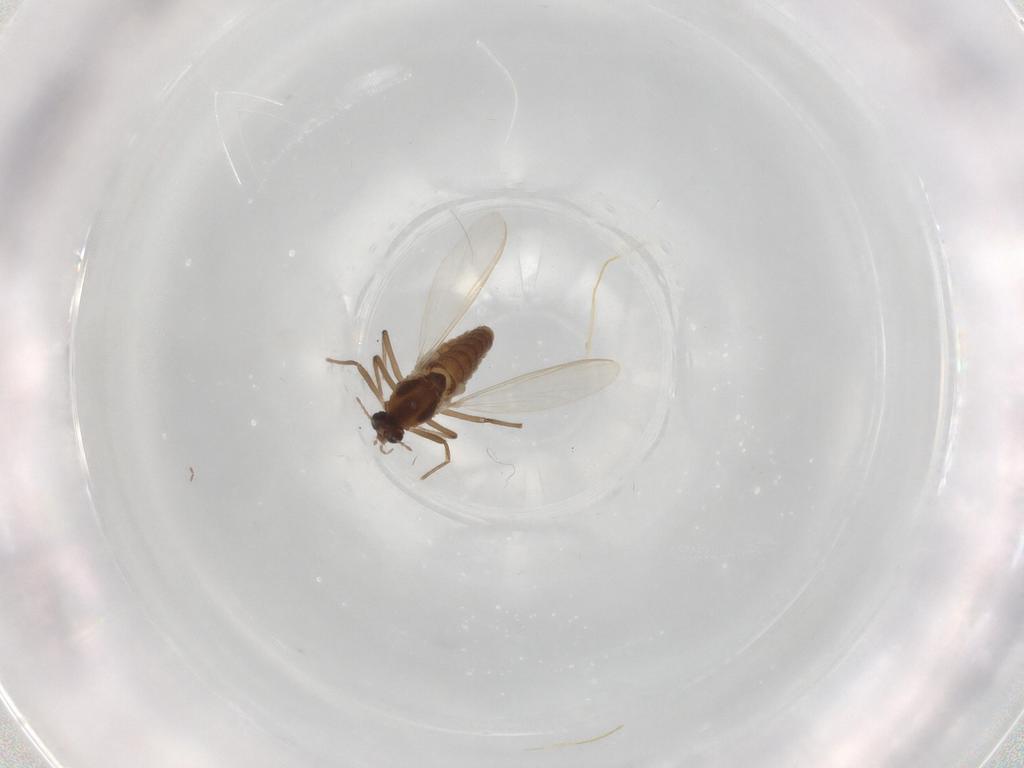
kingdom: Animalia
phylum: Arthropoda
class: Insecta
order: Diptera
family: Chironomidae
